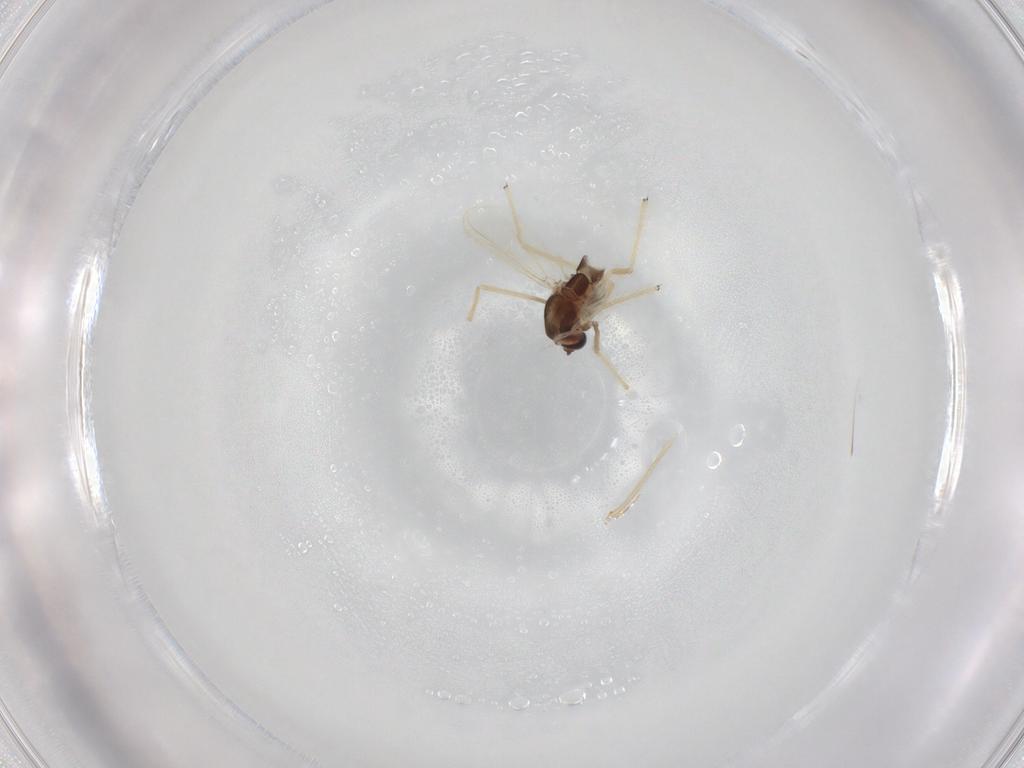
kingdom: Animalia
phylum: Arthropoda
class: Insecta
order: Diptera
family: Chironomidae
